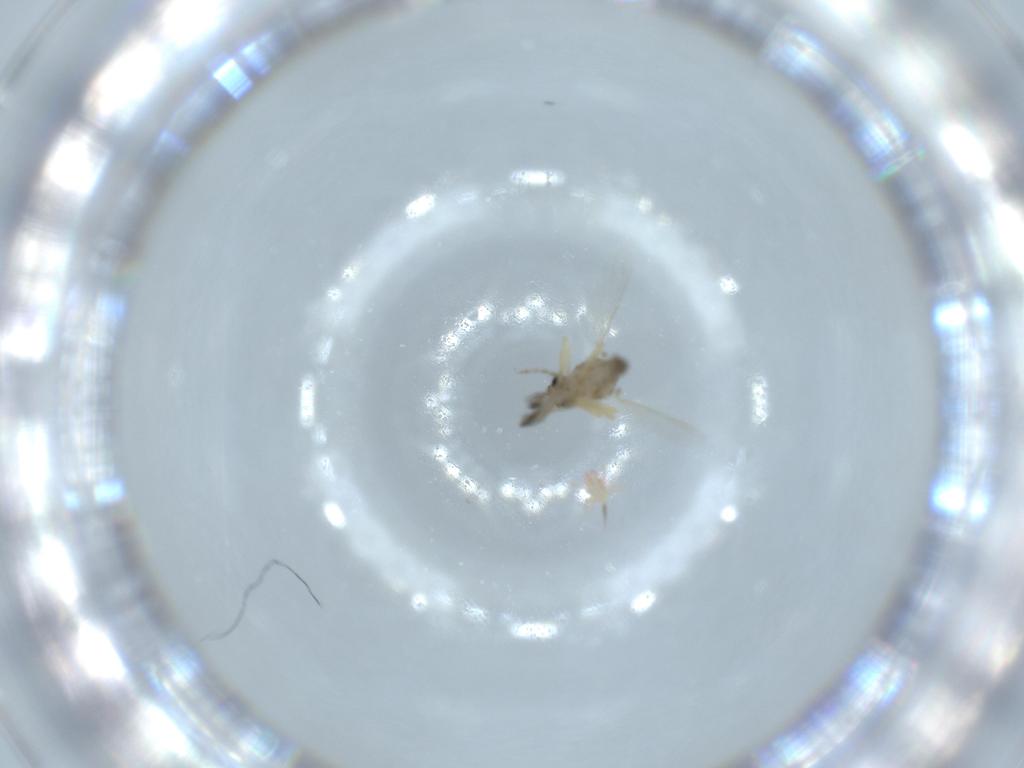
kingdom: Animalia
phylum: Arthropoda
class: Insecta
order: Diptera
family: Ceratopogonidae
